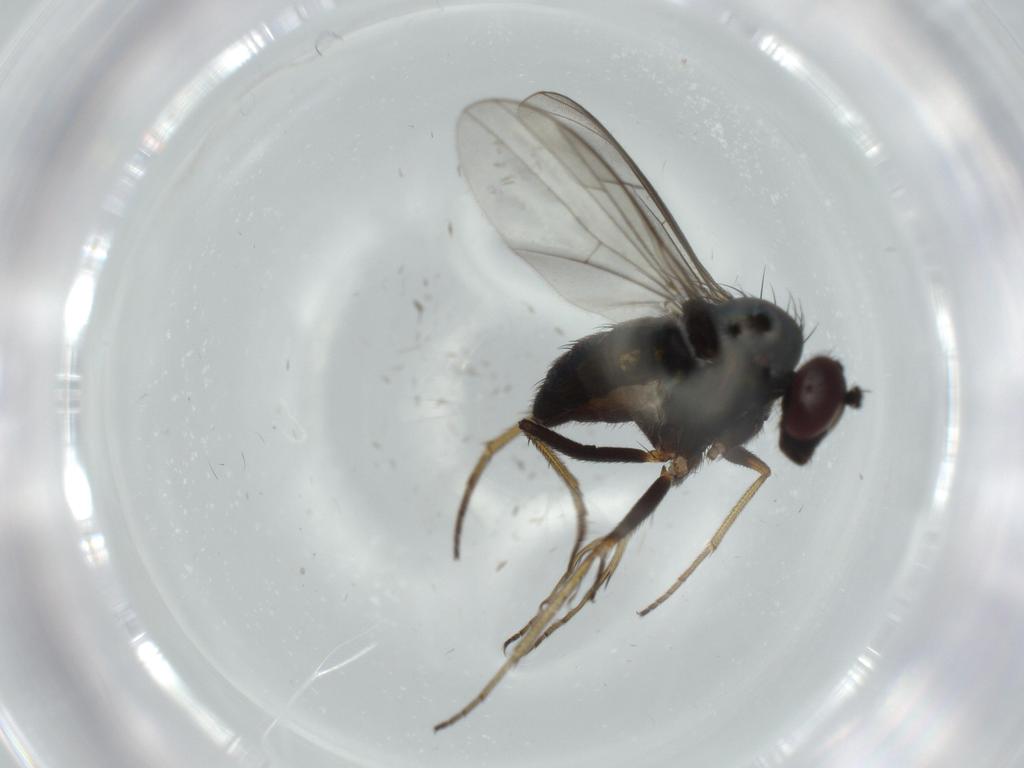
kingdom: Animalia
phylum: Arthropoda
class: Insecta
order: Diptera
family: Dolichopodidae
